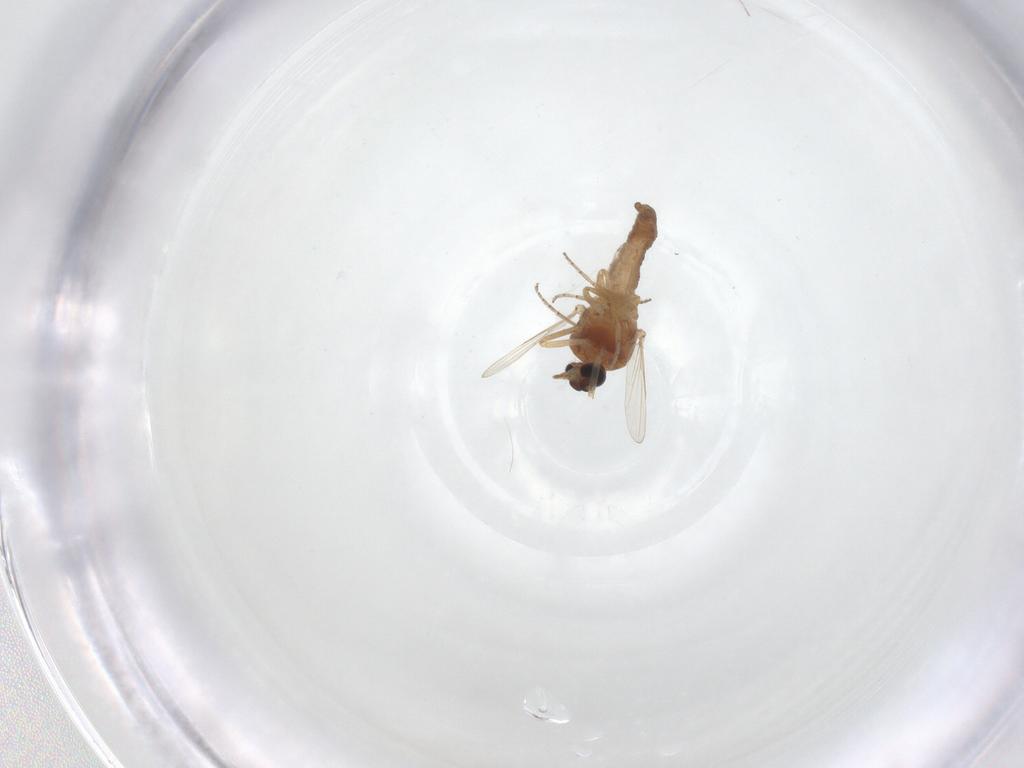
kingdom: Animalia
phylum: Arthropoda
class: Insecta
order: Diptera
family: Ceratopogonidae
